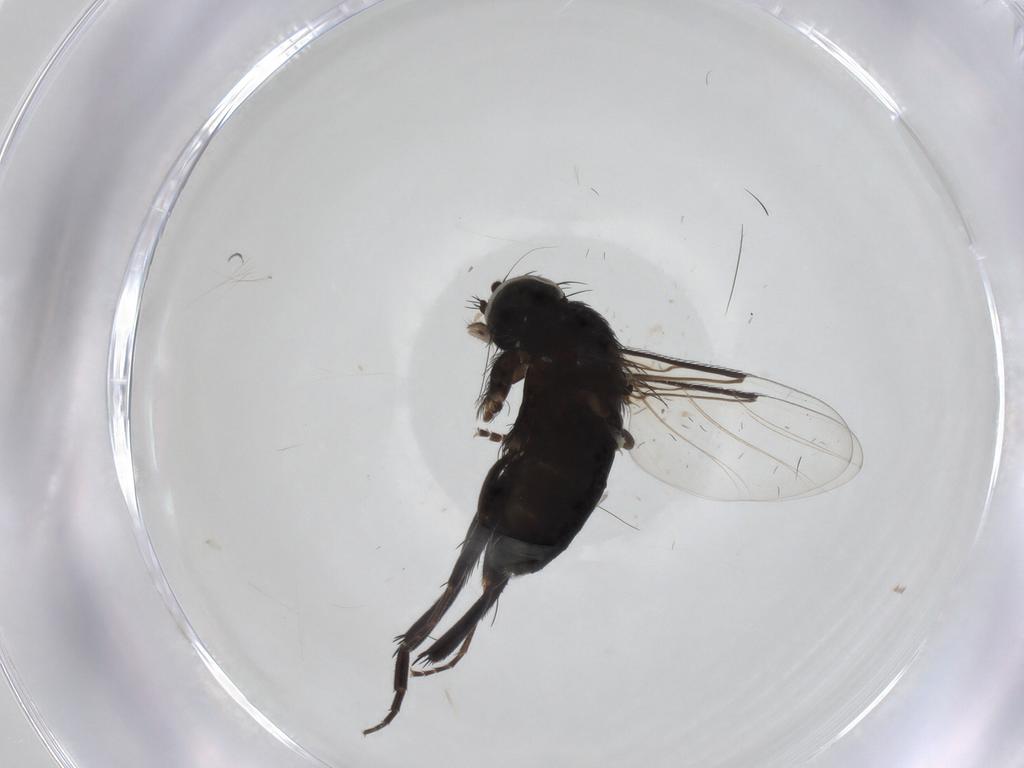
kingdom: Animalia
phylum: Arthropoda
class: Insecta
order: Diptera
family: Phoridae
